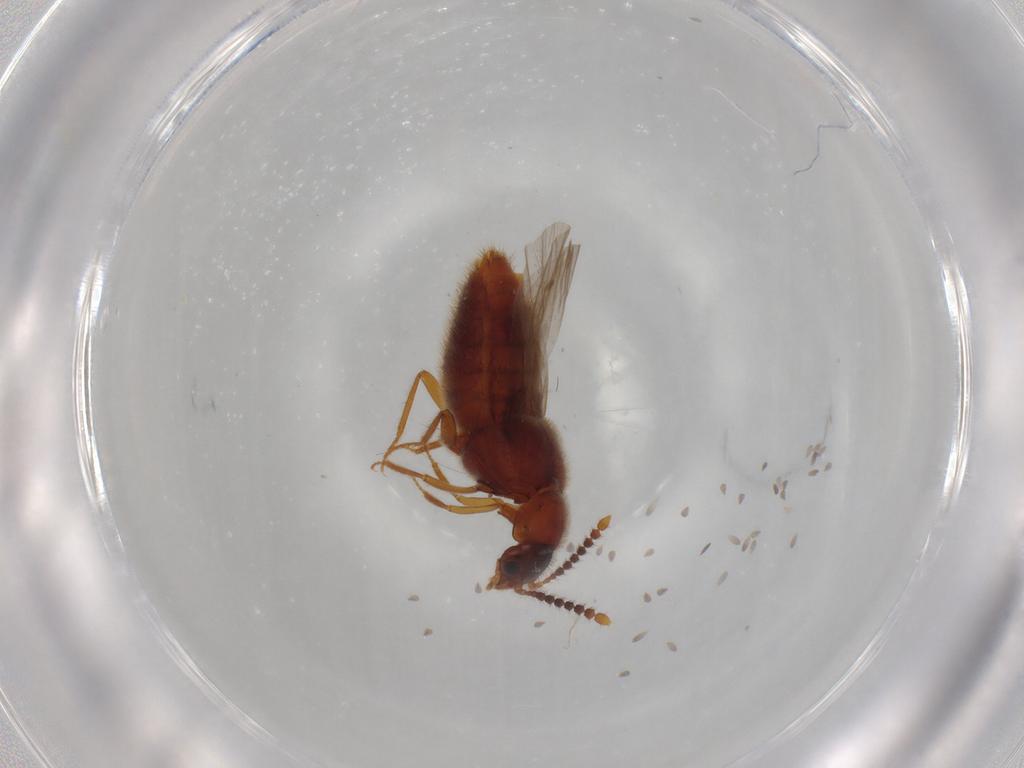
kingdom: Animalia
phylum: Arthropoda
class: Insecta
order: Coleoptera
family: Staphylinidae
